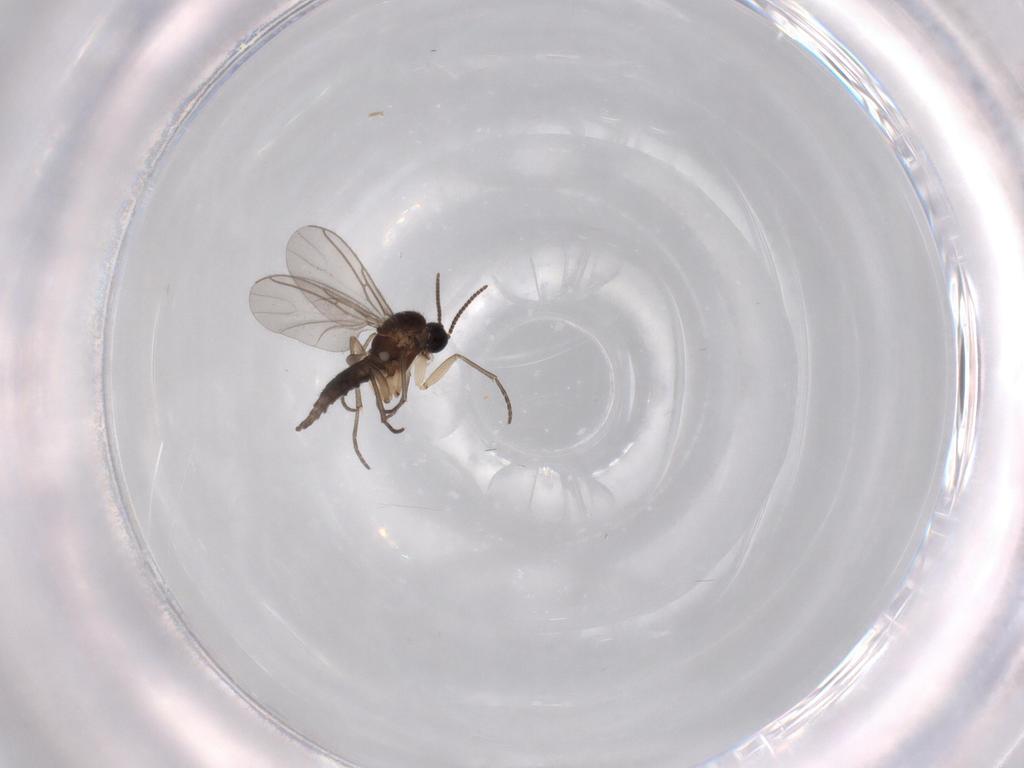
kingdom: Animalia
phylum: Arthropoda
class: Insecta
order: Diptera
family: Sciaridae
